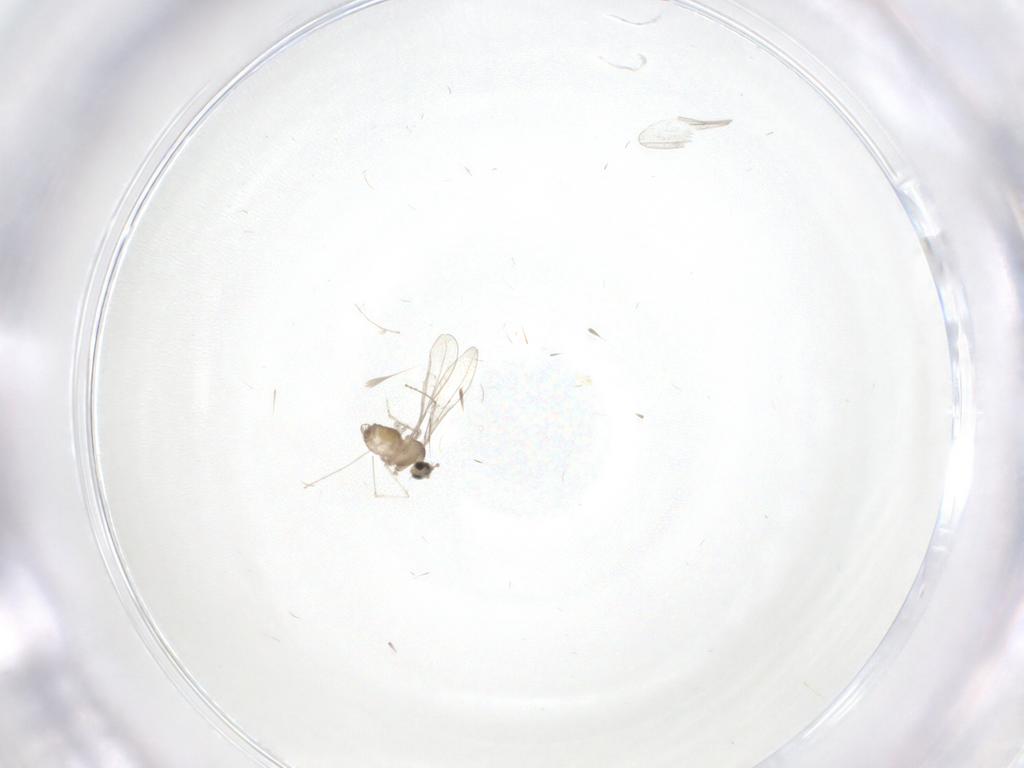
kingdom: Animalia
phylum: Arthropoda
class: Insecta
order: Diptera
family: Cecidomyiidae
